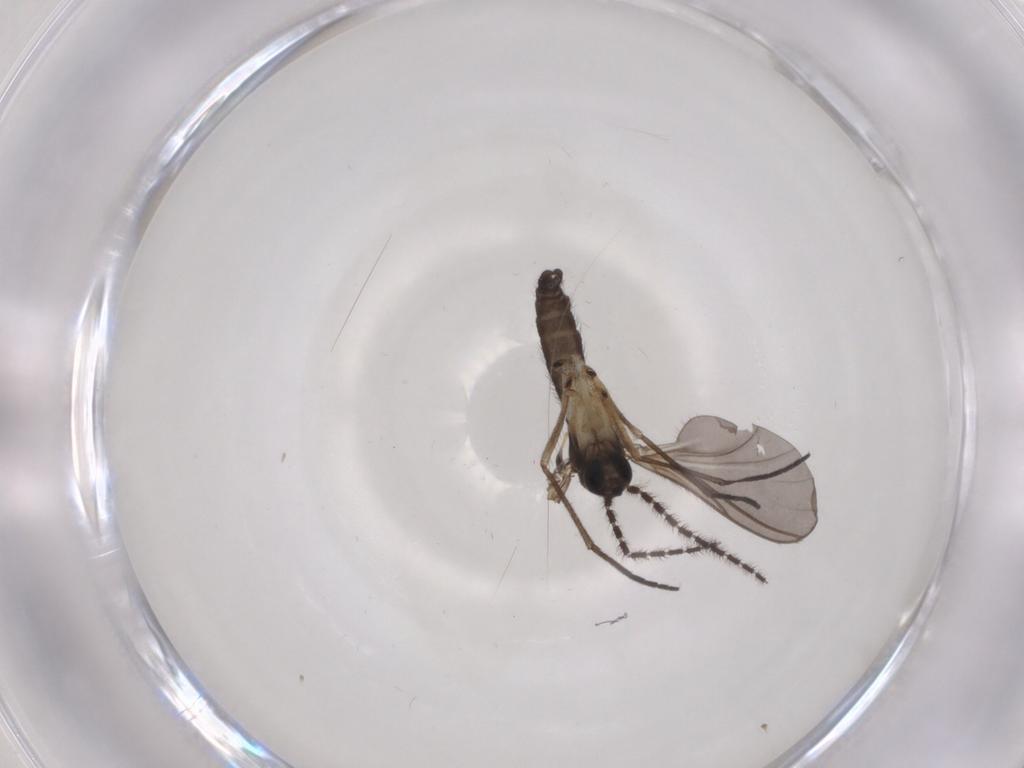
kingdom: Animalia
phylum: Arthropoda
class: Insecta
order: Diptera
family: Sciaridae
